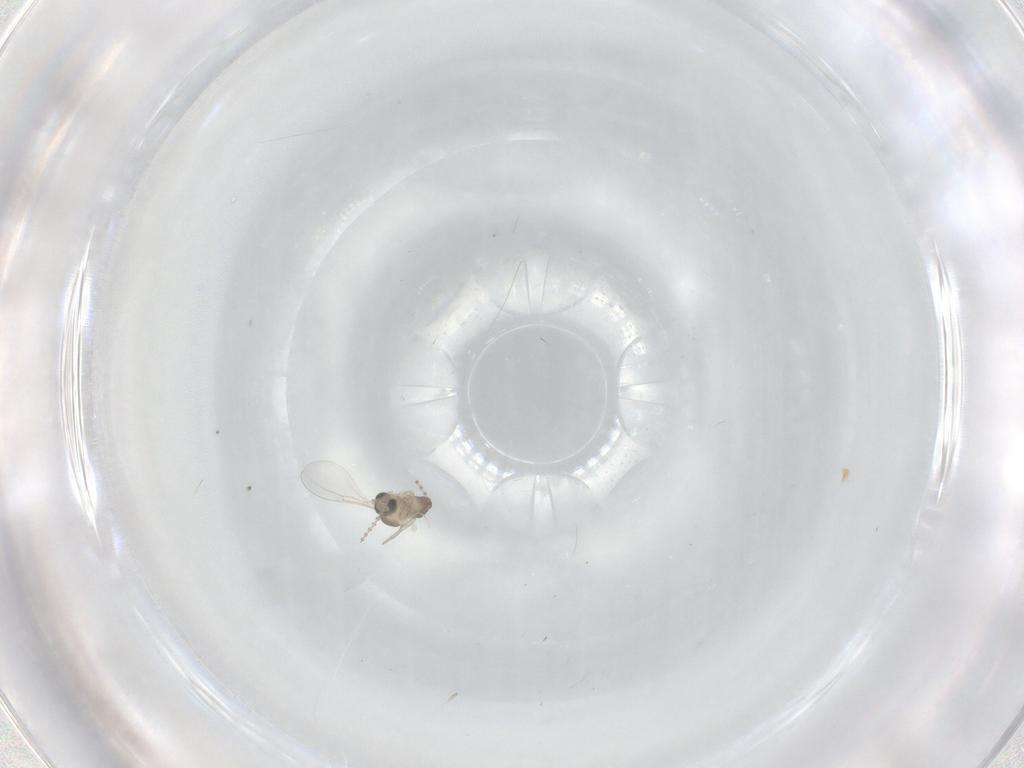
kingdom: Animalia
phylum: Arthropoda
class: Insecta
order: Diptera
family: Cecidomyiidae
